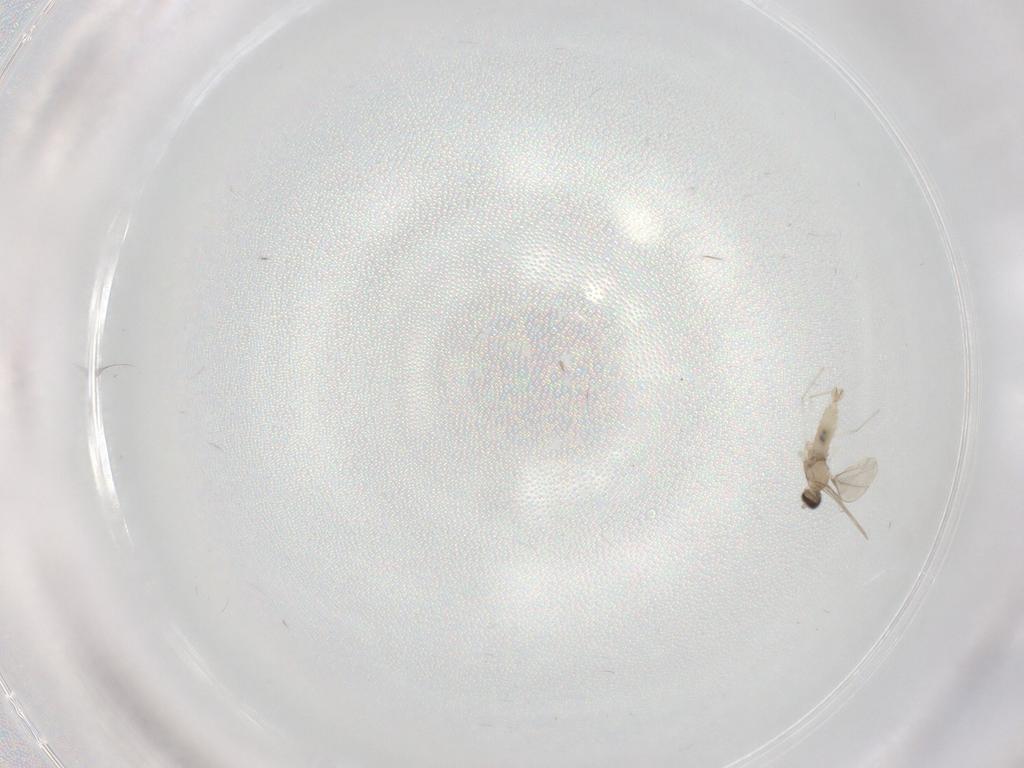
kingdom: Animalia
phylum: Arthropoda
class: Insecta
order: Diptera
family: Cecidomyiidae
